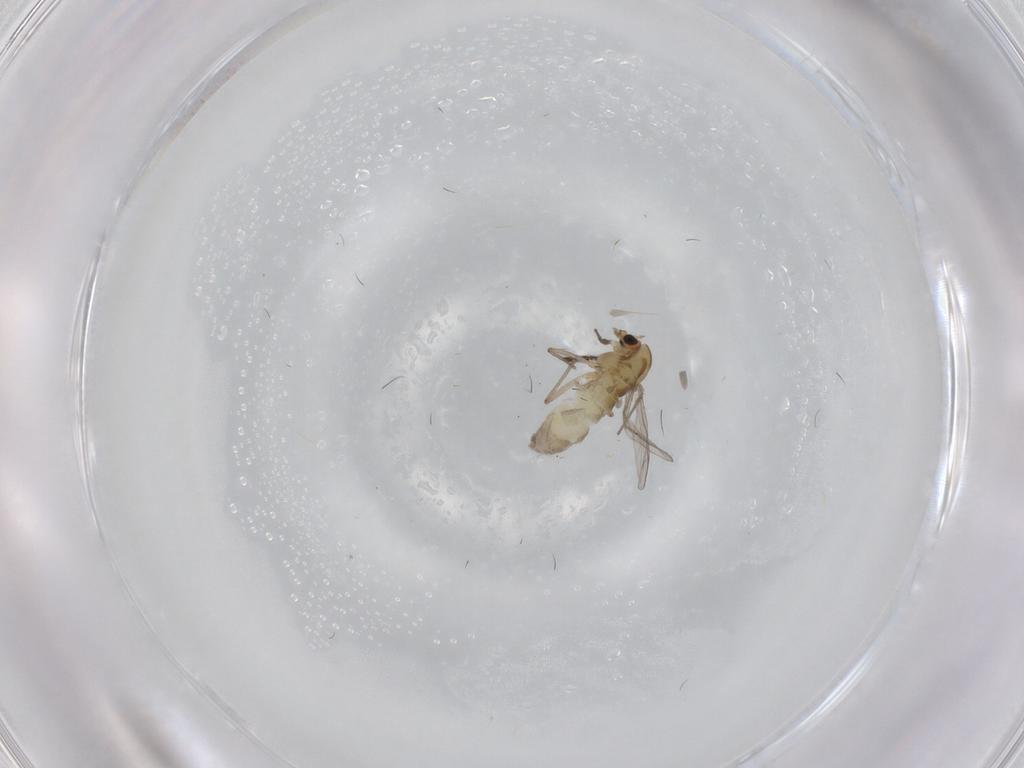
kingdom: Animalia
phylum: Arthropoda
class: Insecta
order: Diptera
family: Chironomidae
